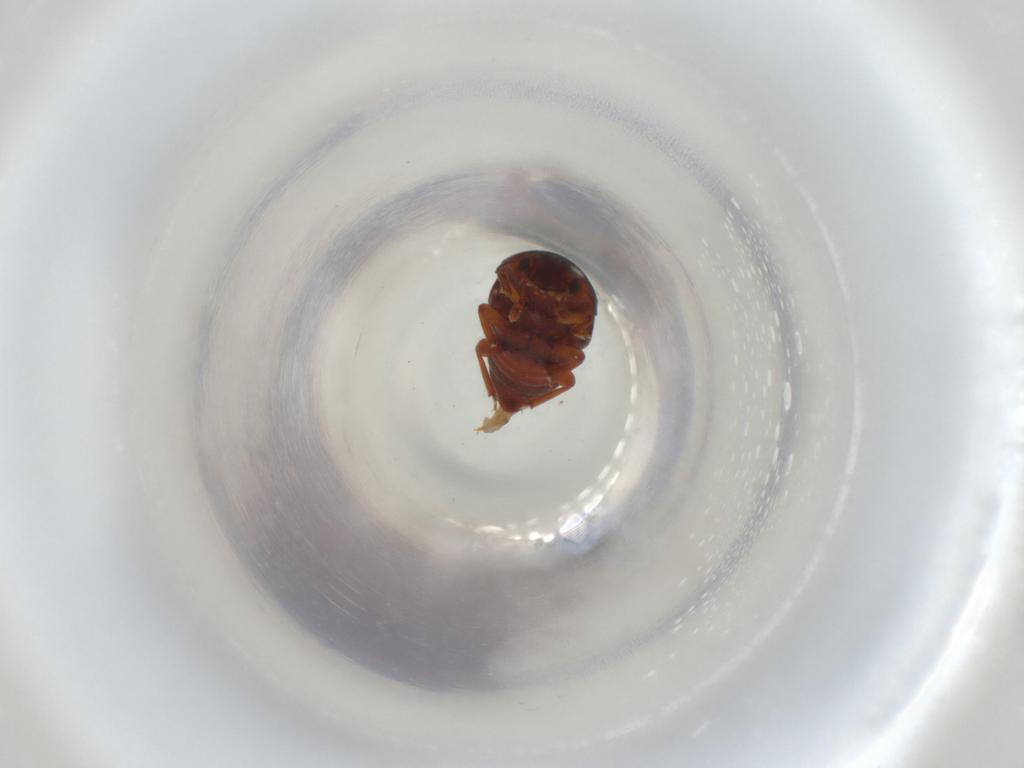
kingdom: Animalia
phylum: Arthropoda
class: Insecta
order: Coleoptera
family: Nitidulidae
